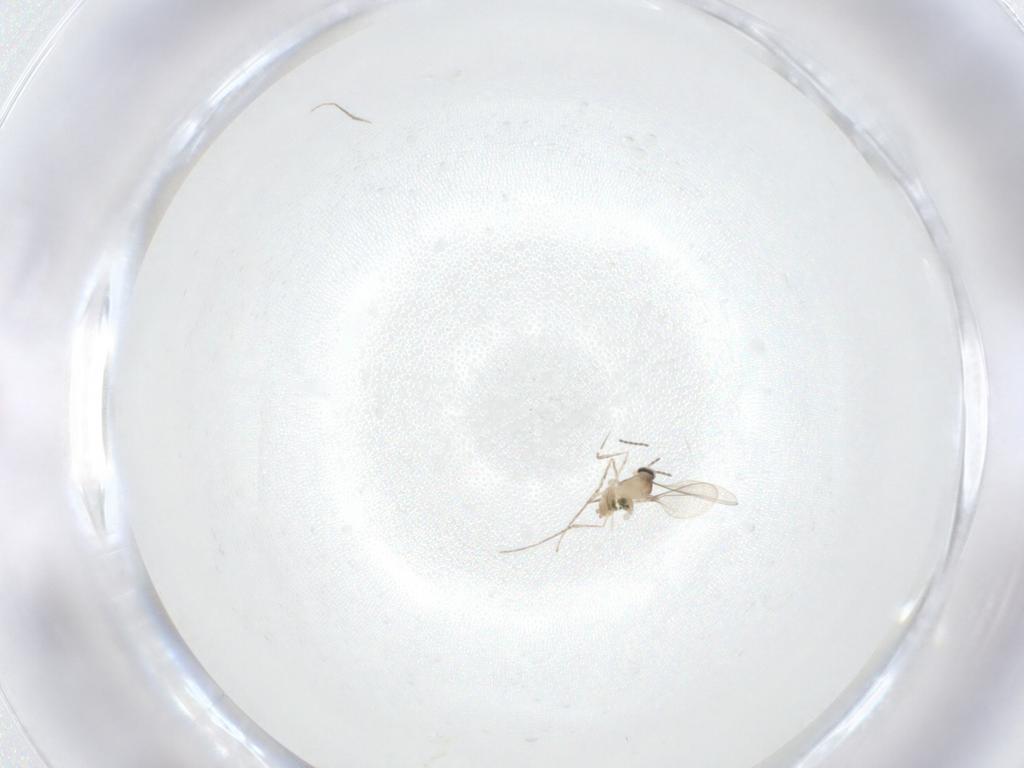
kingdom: Animalia
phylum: Arthropoda
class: Insecta
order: Diptera
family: Cecidomyiidae
